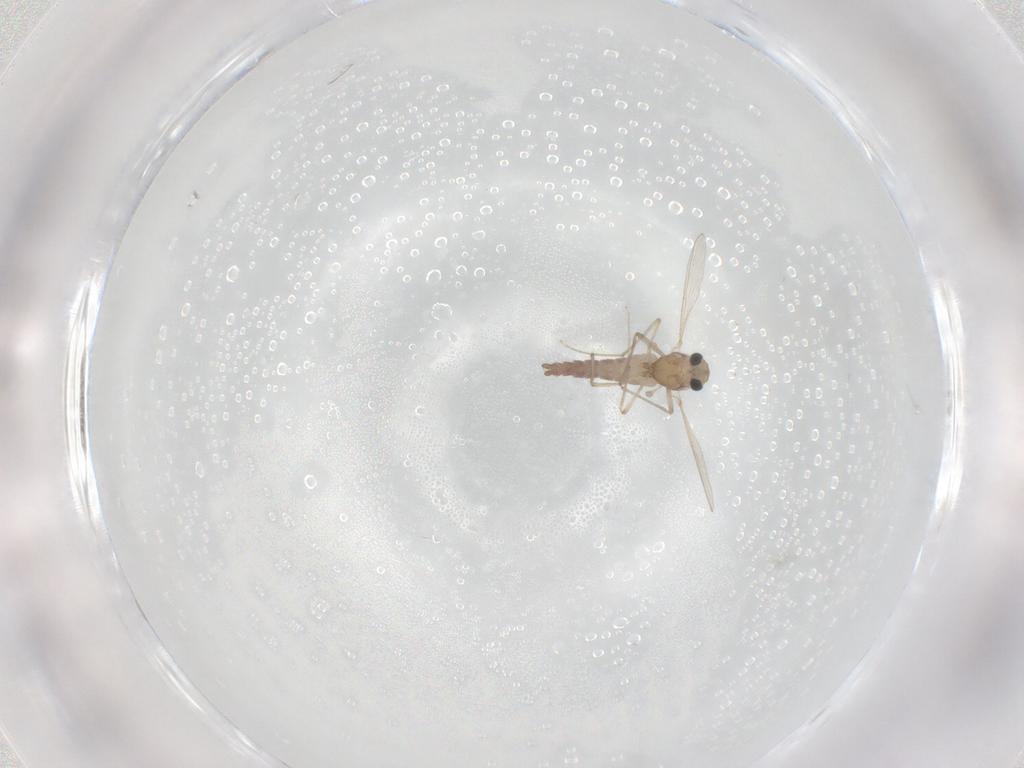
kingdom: Animalia
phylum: Arthropoda
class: Insecta
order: Diptera
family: Chironomidae
